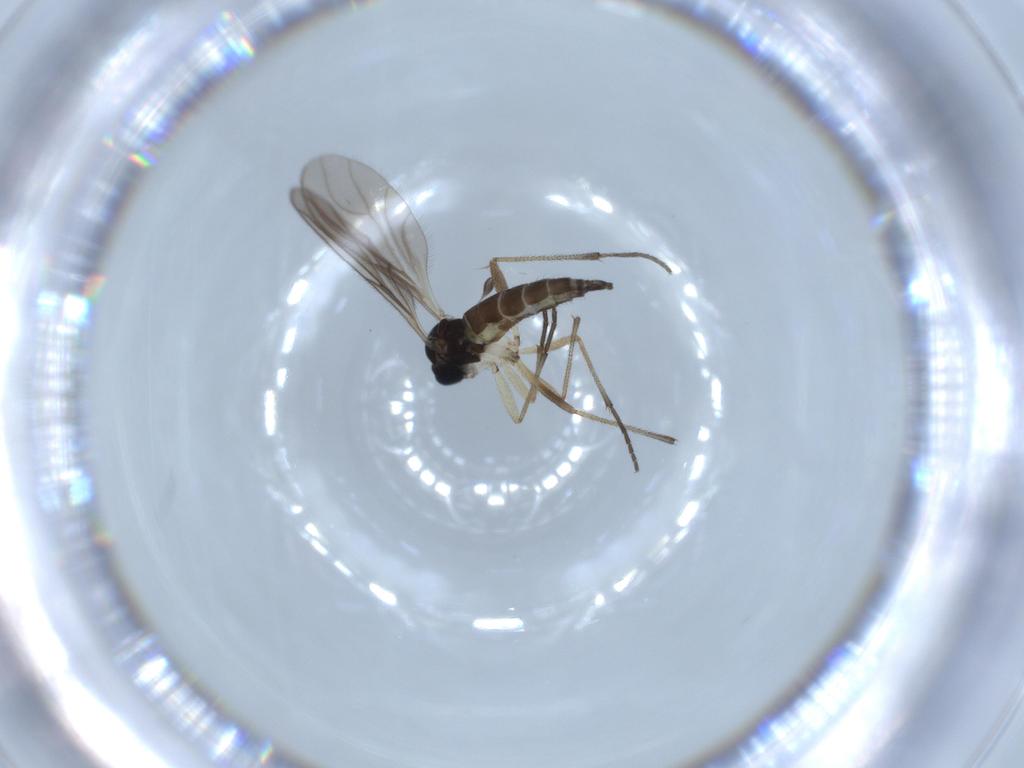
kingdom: Animalia
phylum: Arthropoda
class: Insecta
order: Diptera
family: Sciaridae
